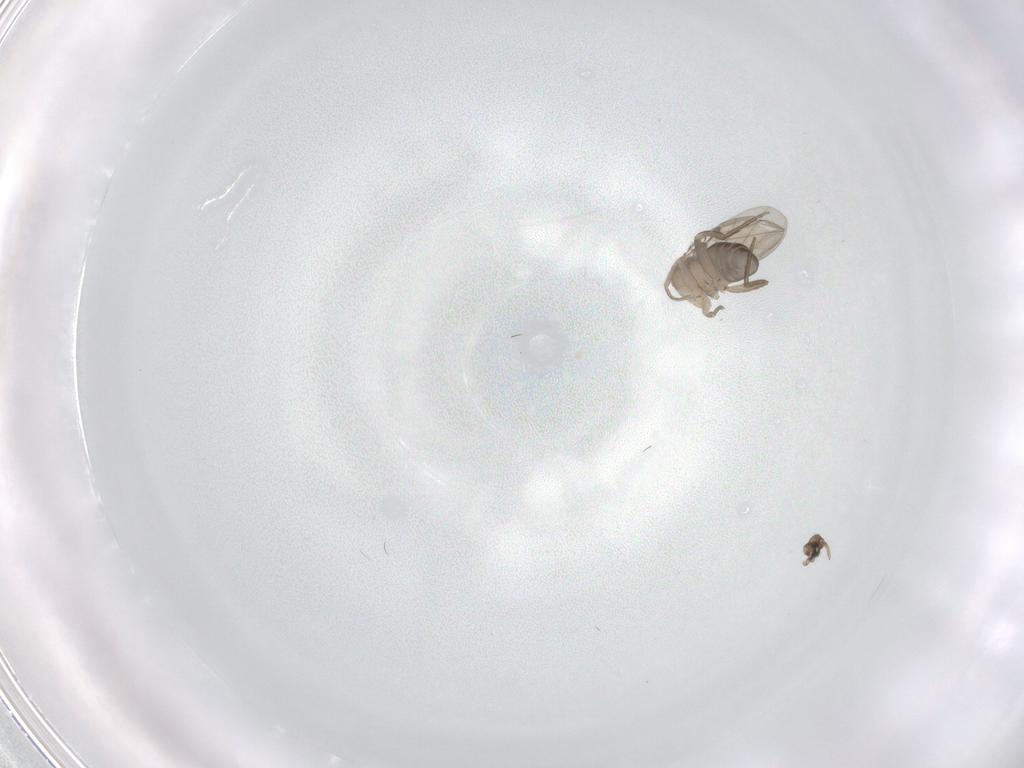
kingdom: Animalia
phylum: Arthropoda
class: Insecta
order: Diptera
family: Phoridae
